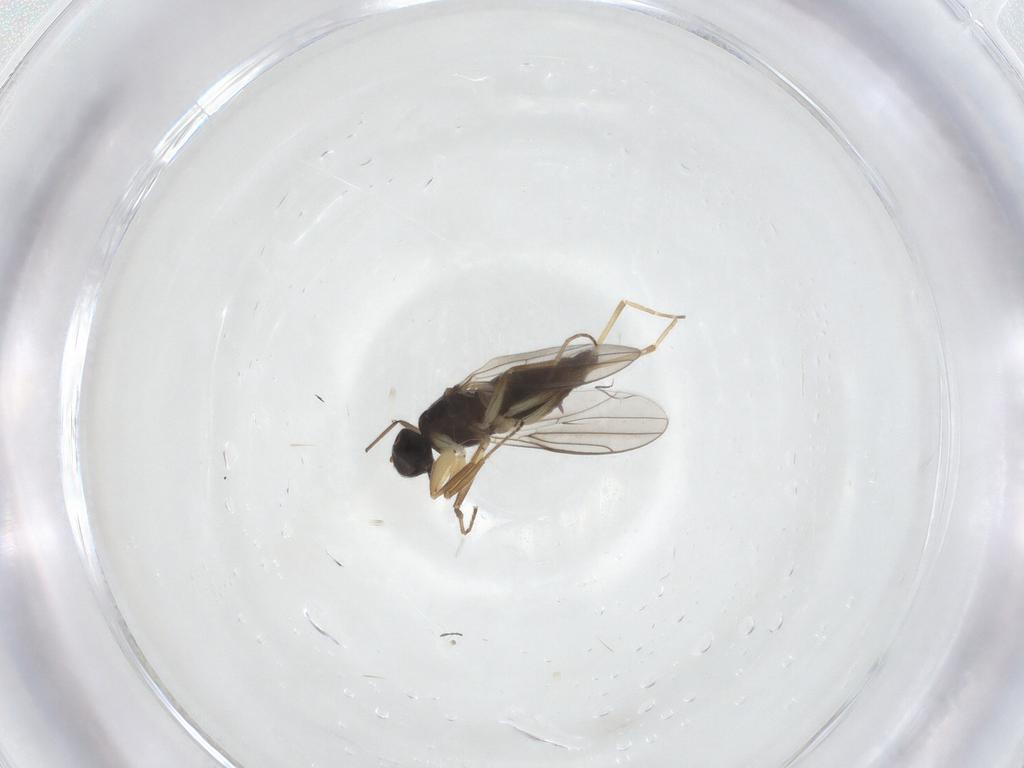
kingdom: Animalia
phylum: Arthropoda
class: Insecta
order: Diptera
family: Hybotidae
